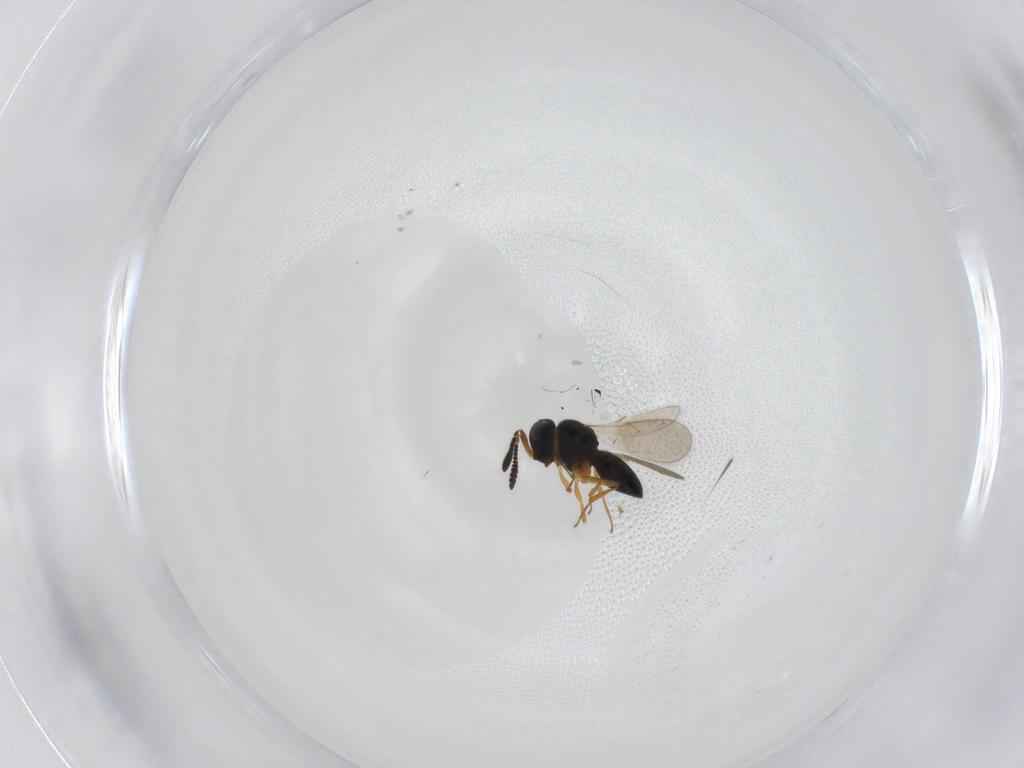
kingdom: Animalia
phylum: Arthropoda
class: Insecta
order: Hymenoptera
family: Scelionidae
